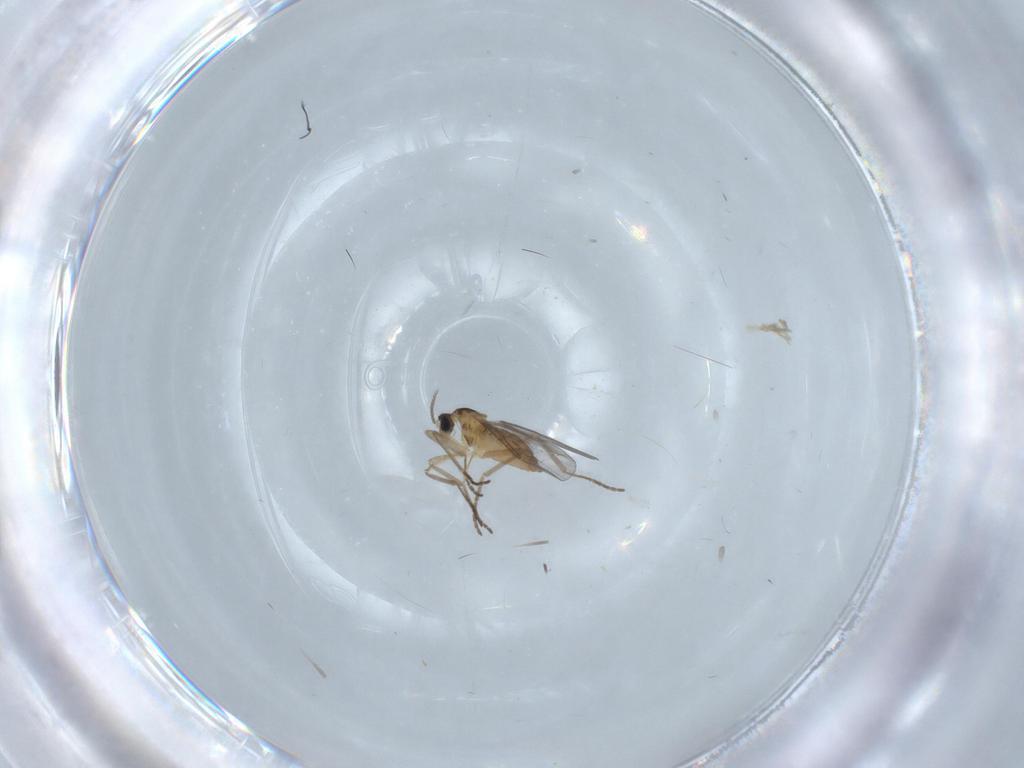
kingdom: Animalia
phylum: Arthropoda
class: Insecta
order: Diptera
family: Cecidomyiidae
